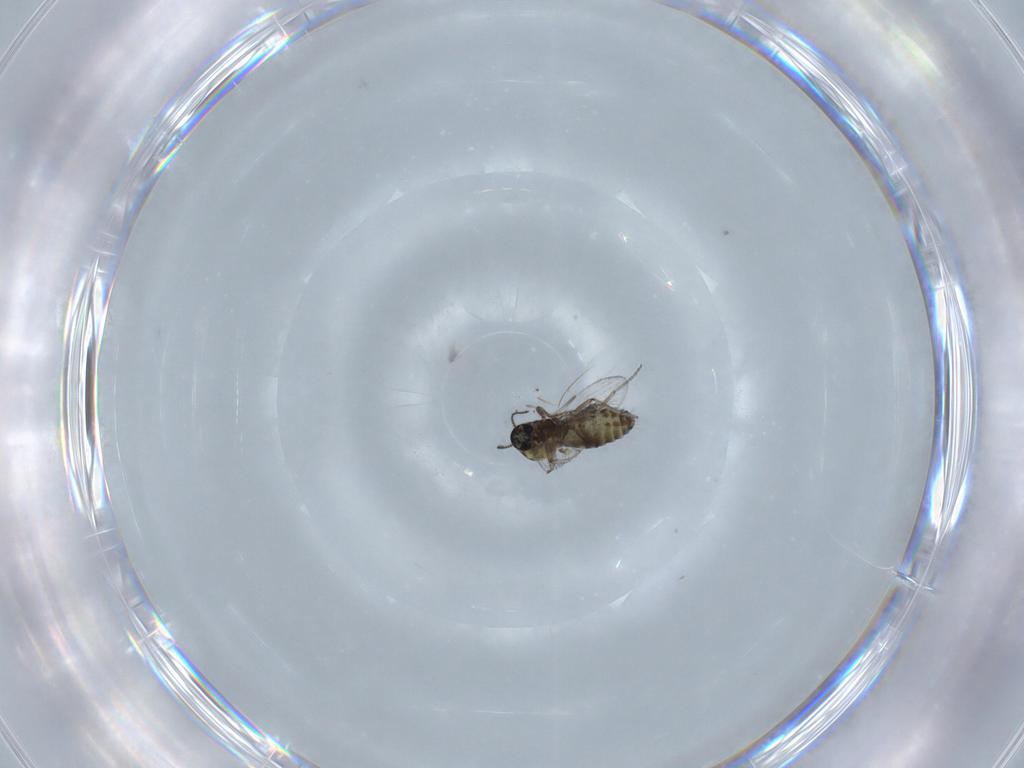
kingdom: Animalia
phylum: Arthropoda
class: Insecta
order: Diptera
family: Ceratopogonidae
